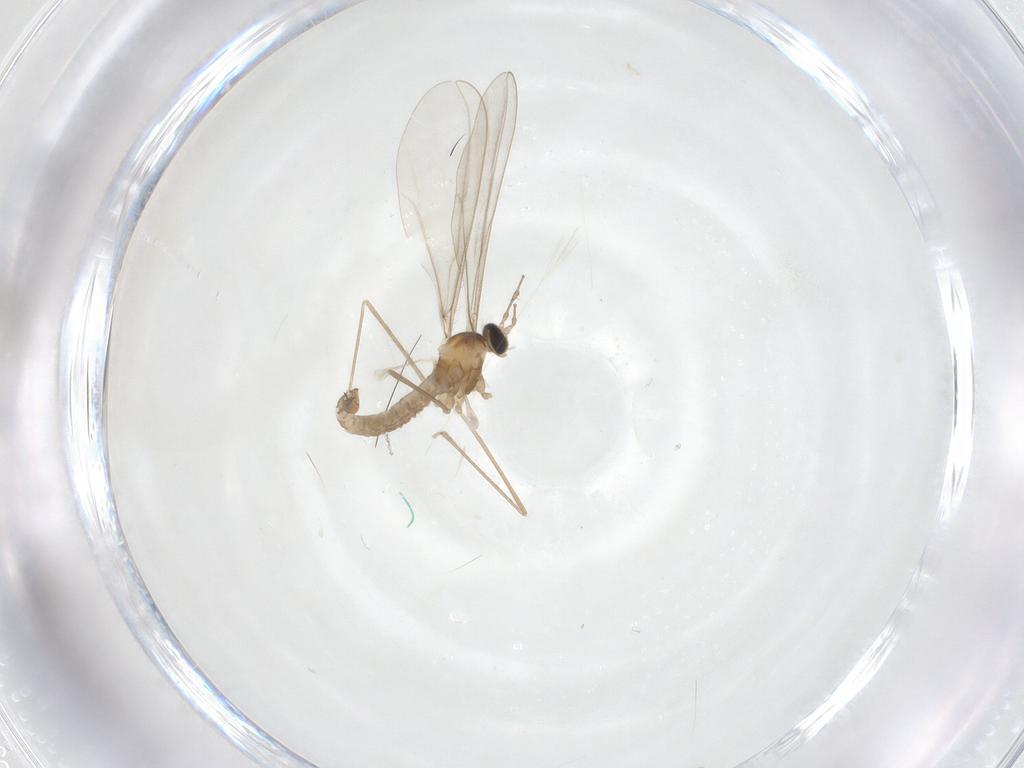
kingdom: Animalia
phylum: Arthropoda
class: Insecta
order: Diptera
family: Cecidomyiidae
